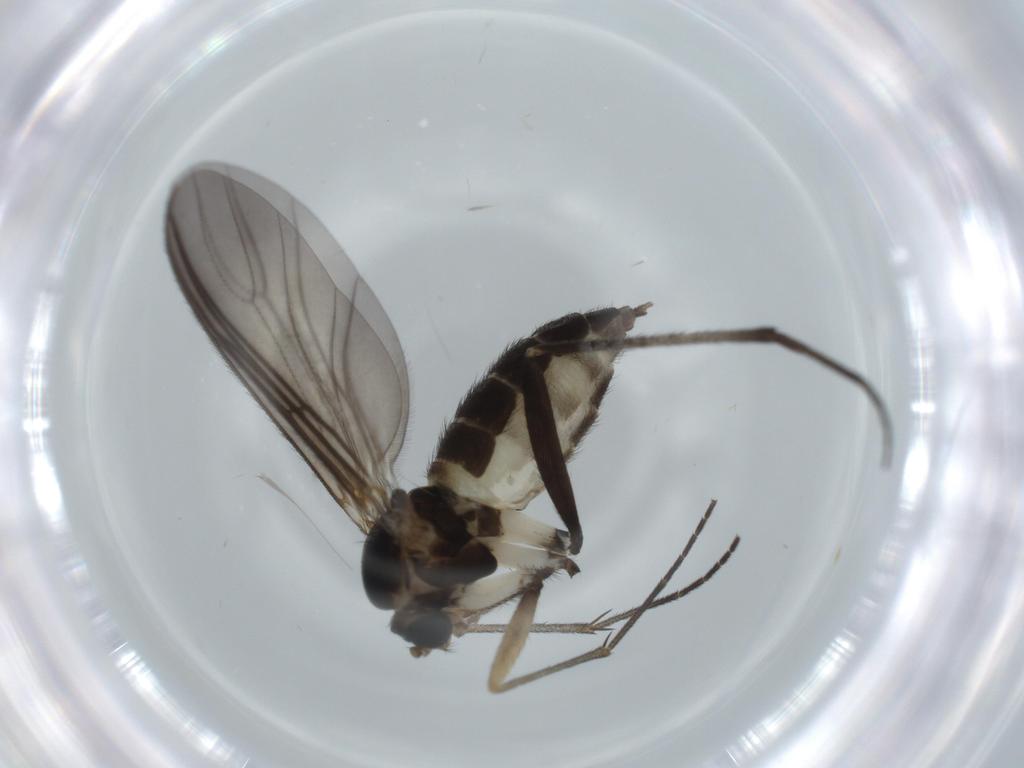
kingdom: Animalia
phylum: Arthropoda
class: Insecta
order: Diptera
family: Sciaridae
